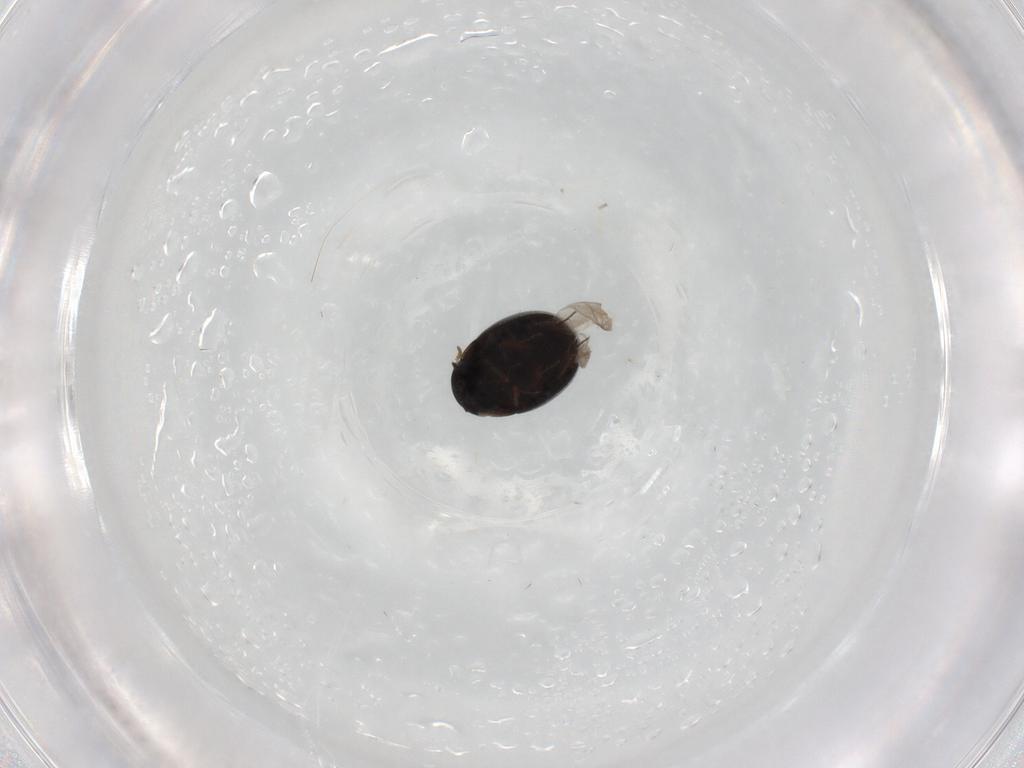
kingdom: Animalia
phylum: Arthropoda
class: Insecta
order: Coleoptera
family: Hydrophilidae
